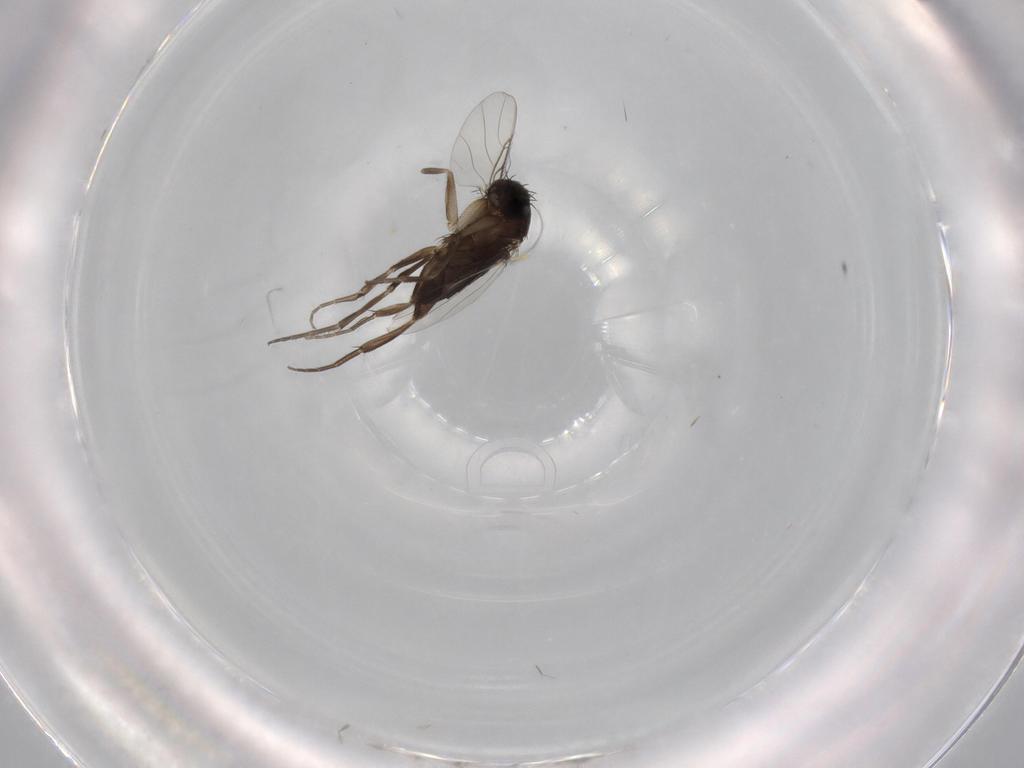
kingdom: Animalia
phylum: Arthropoda
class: Insecta
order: Diptera
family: Phoridae
